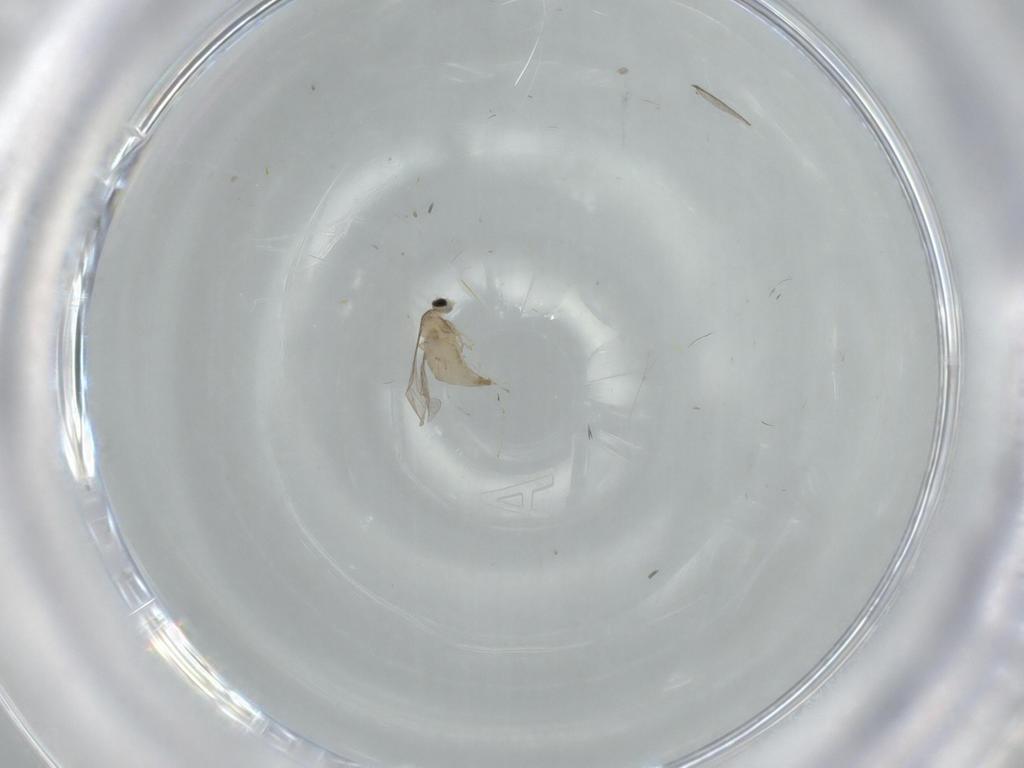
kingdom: Animalia
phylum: Arthropoda
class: Insecta
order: Diptera
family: Cecidomyiidae
